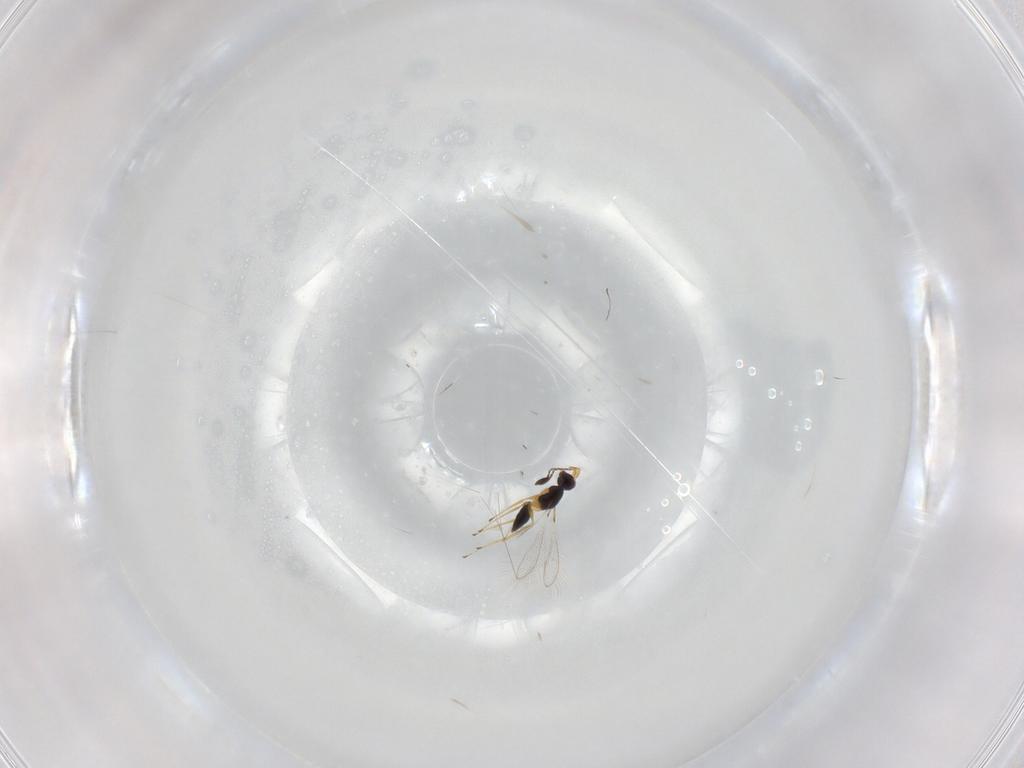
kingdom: Animalia
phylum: Arthropoda
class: Insecta
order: Hymenoptera
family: Mymaridae
